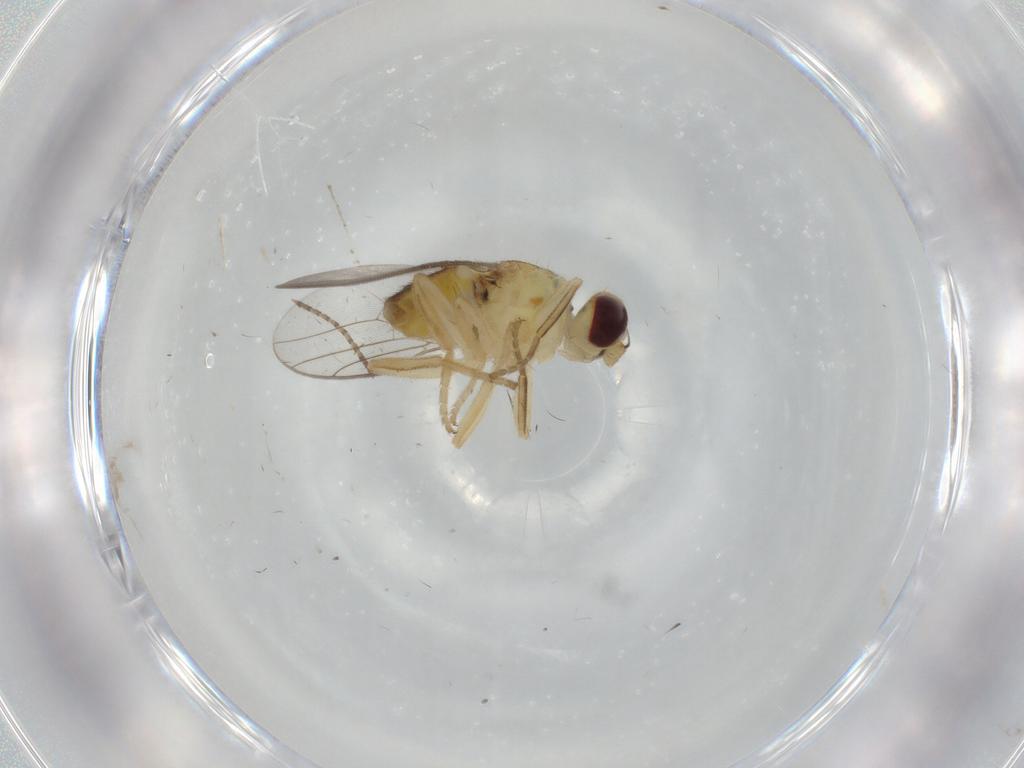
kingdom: Animalia
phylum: Arthropoda
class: Insecta
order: Diptera
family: Chloropidae
